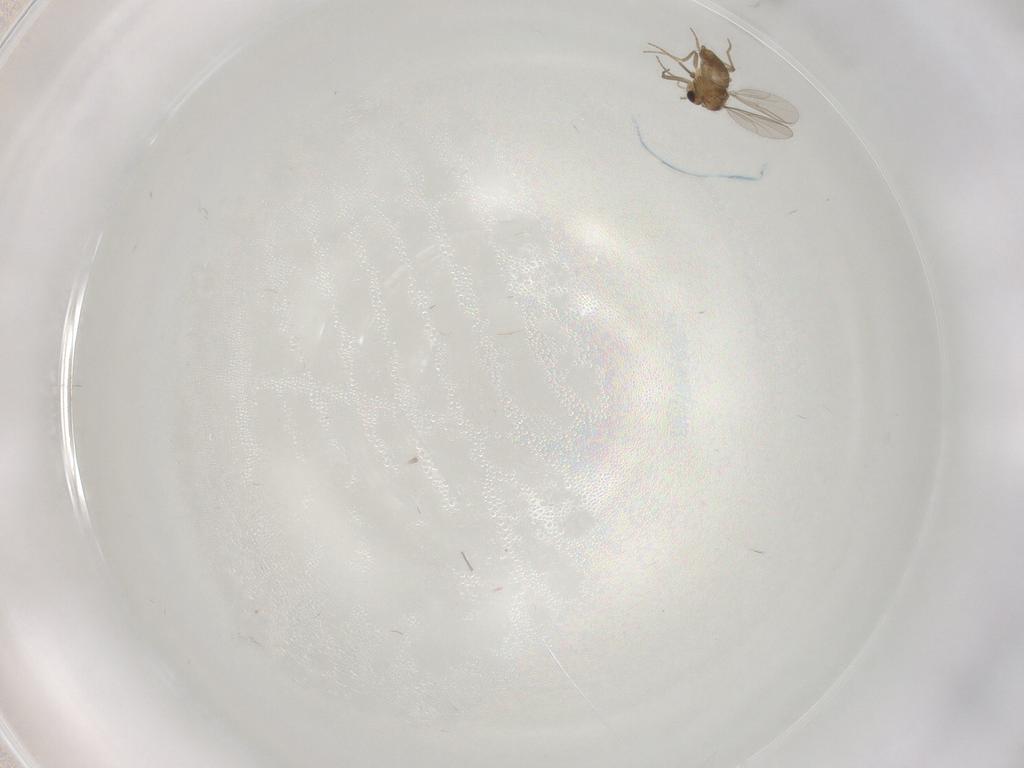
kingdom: Animalia
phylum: Arthropoda
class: Insecta
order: Diptera
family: Chironomidae
